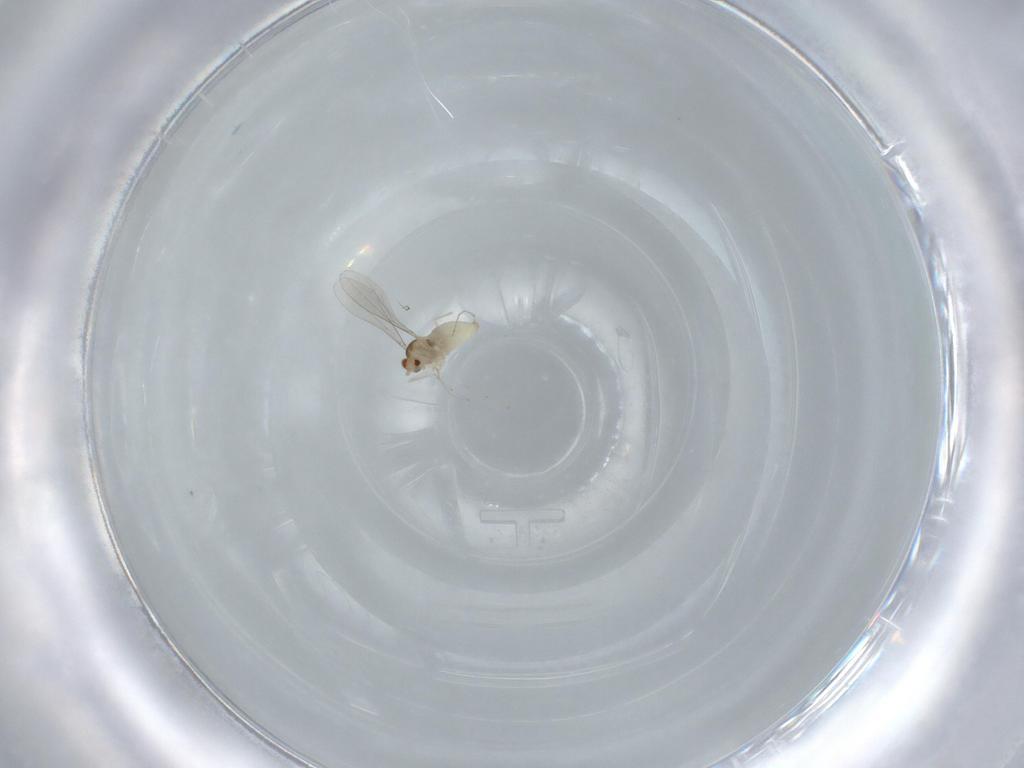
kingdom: Animalia
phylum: Arthropoda
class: Insecta
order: Diptera
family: Cecidomyiidae
